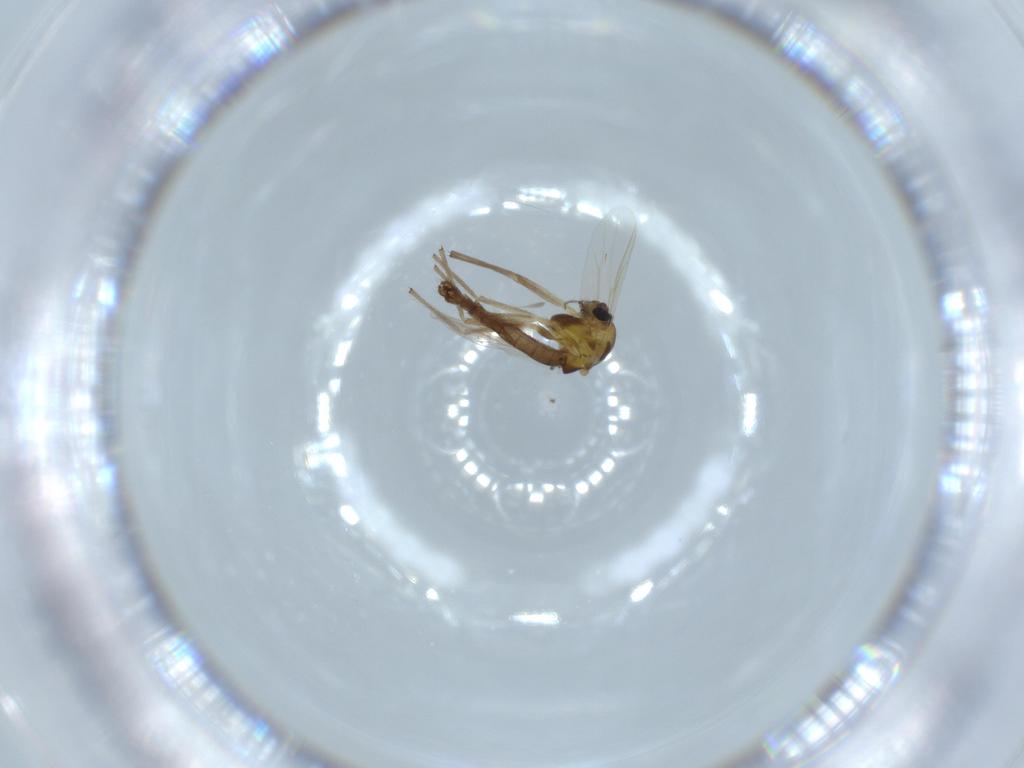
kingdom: Animalia
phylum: Arthropoda
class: Insecta
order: Diptera
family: Chironomidae
